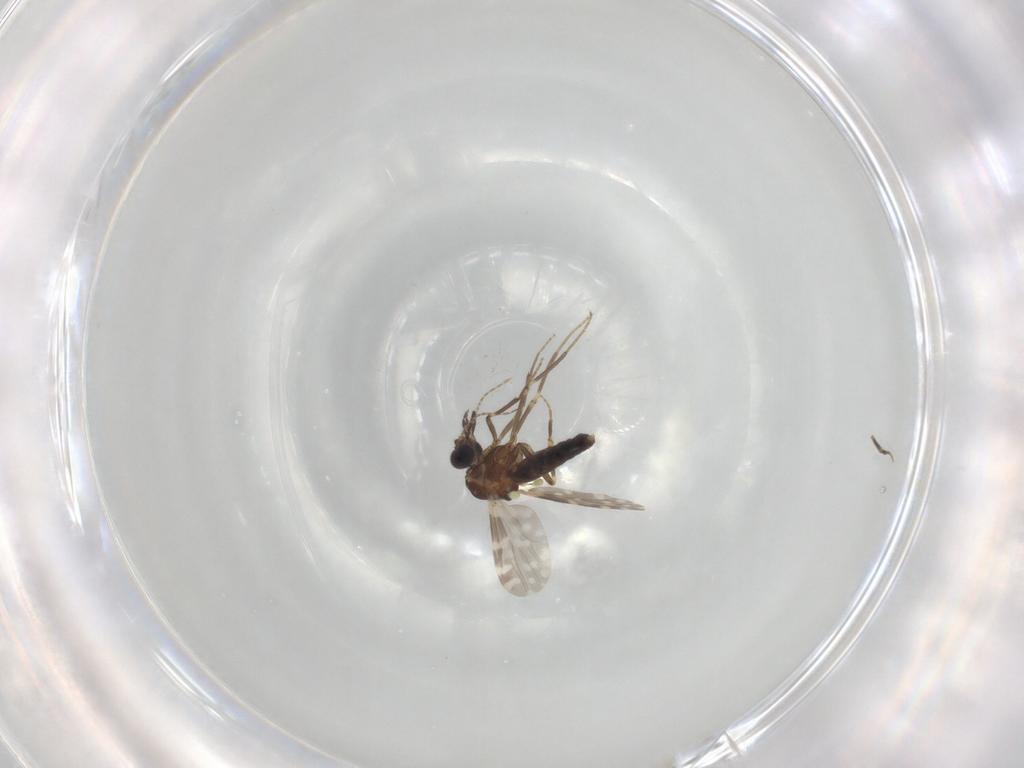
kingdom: Animalia
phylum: Arthropoda
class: Insecta
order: Diptera
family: Ceratopogonidae
